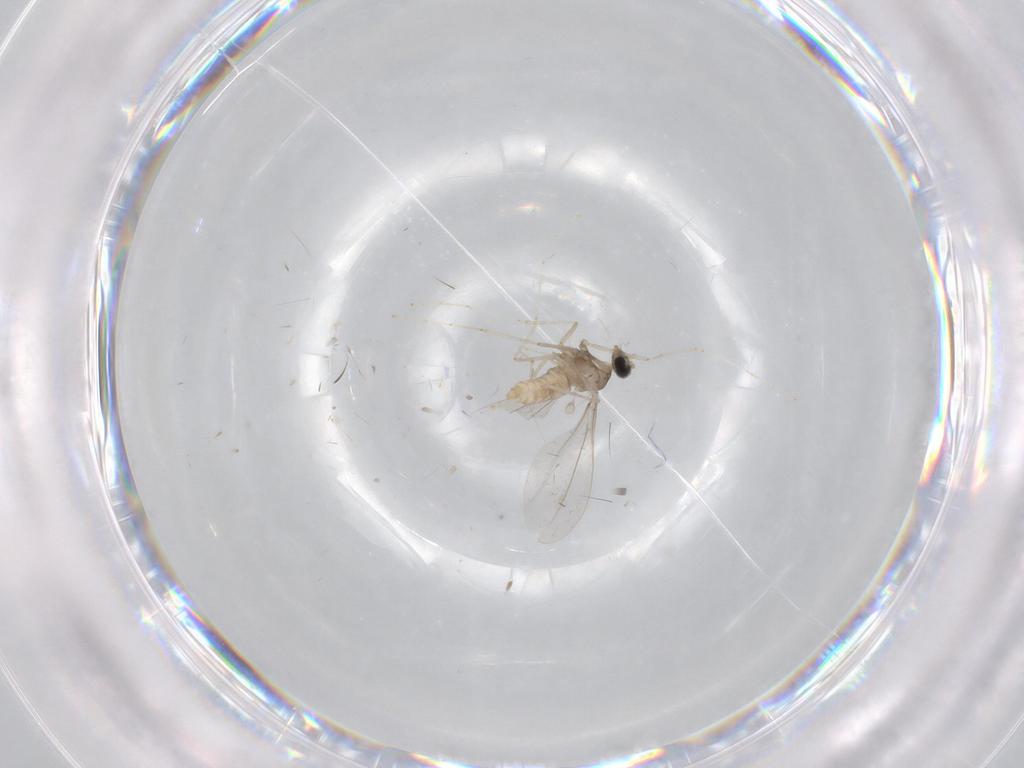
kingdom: Animalia
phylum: Arthropoda
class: Insecta
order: Diptera
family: Cecidomyiidae
